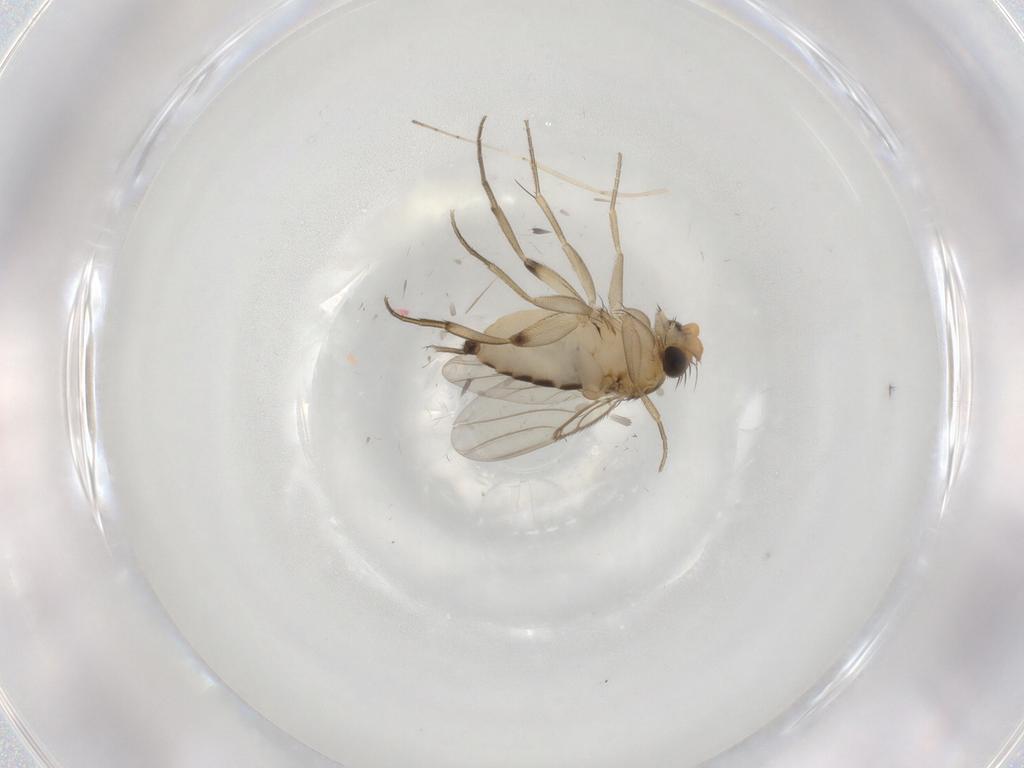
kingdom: Animalia
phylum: Arthropoda
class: Insecta
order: Diptera
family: Cecidomyiidae
